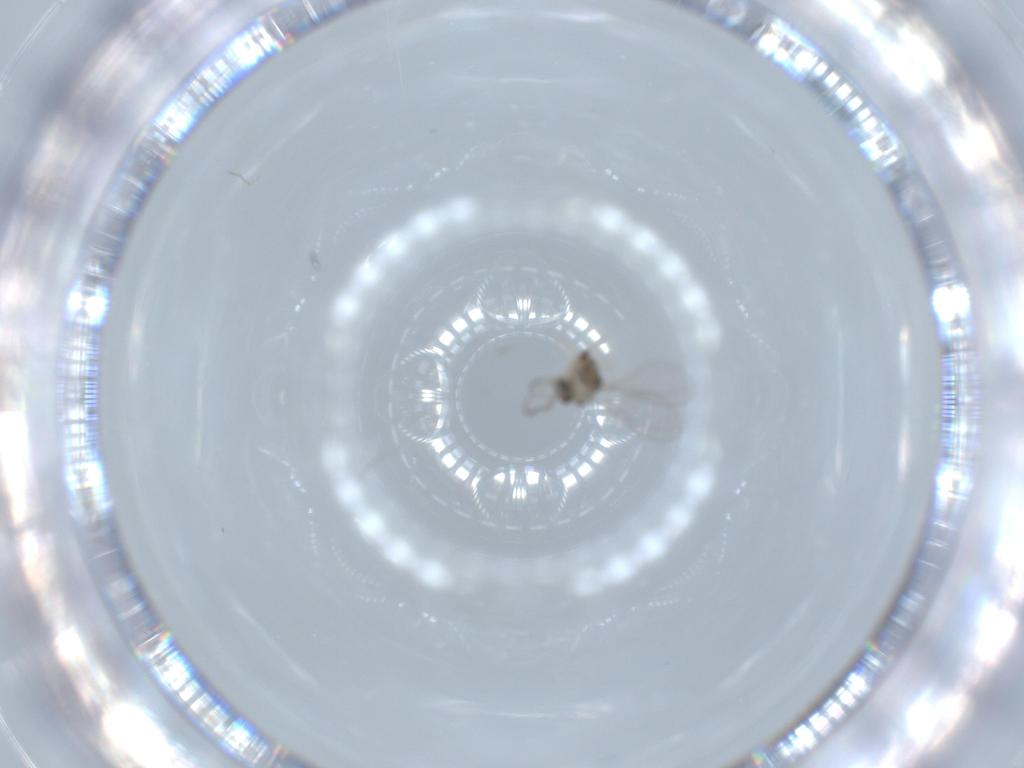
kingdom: Animalia
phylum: Arthropoda
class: Insecta
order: Diptera
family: Cecidomyiidae
